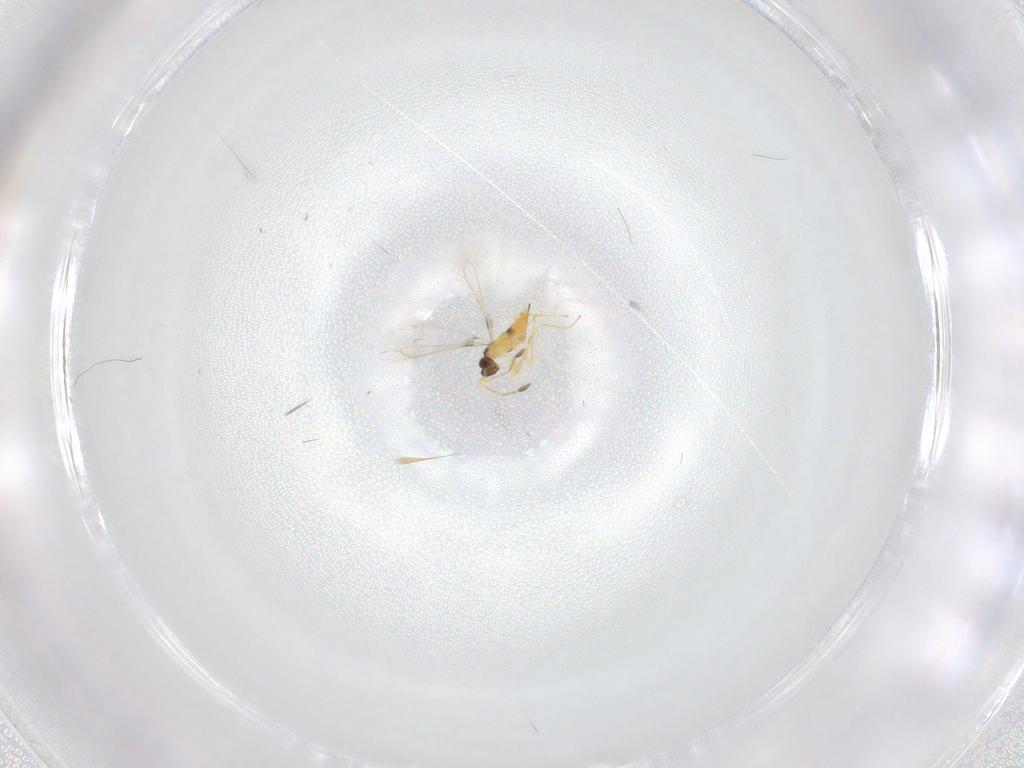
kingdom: Animalia
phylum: Arthropoda
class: Insecta
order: Hymenoptera
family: Mymaridae
